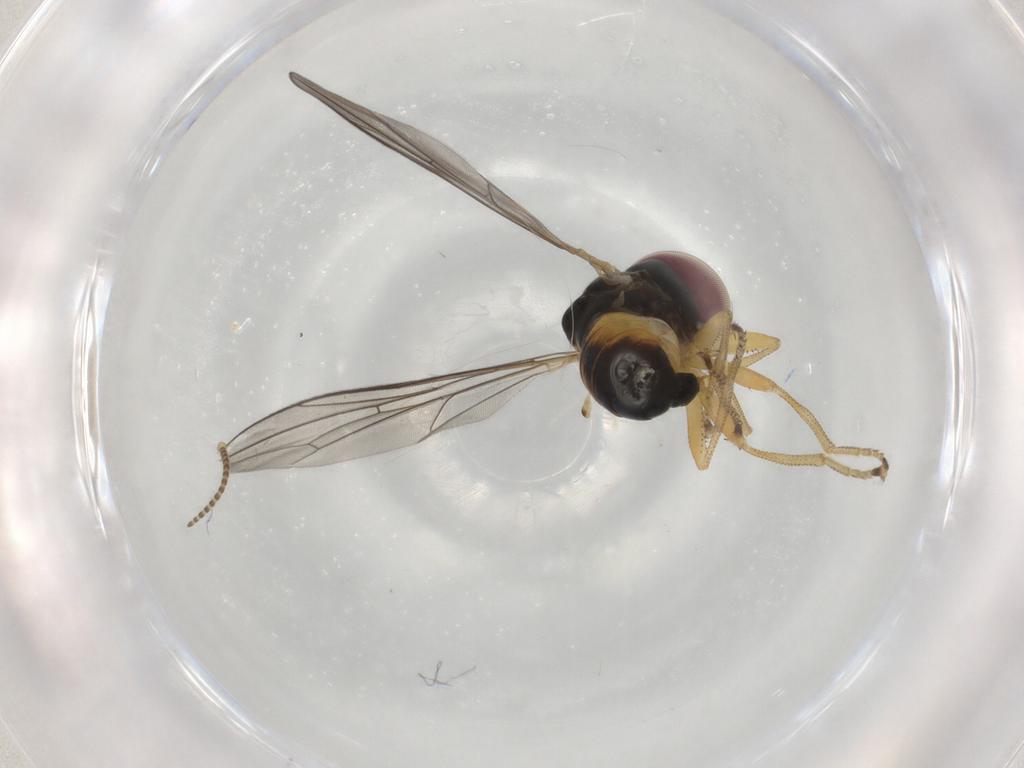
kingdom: Animalia
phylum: Arthropoda
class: Insecta
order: Diptera
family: Pipunculidae
